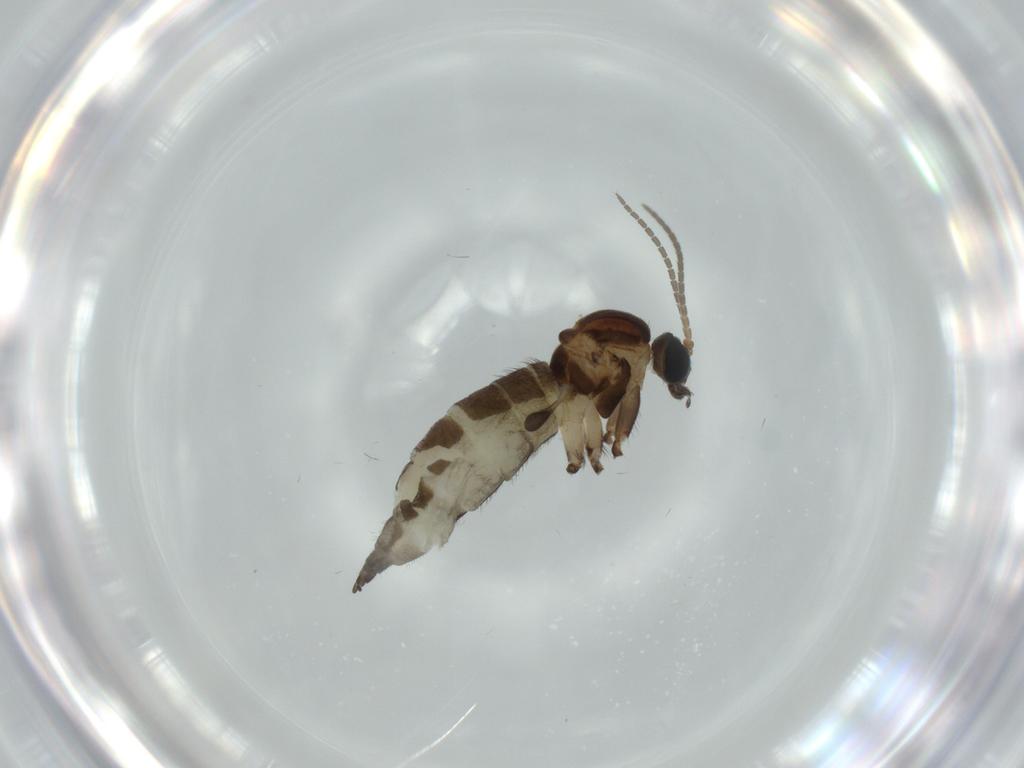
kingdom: Animalia
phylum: Arthropoda
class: Insecta
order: Diptera
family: Sciaridae
